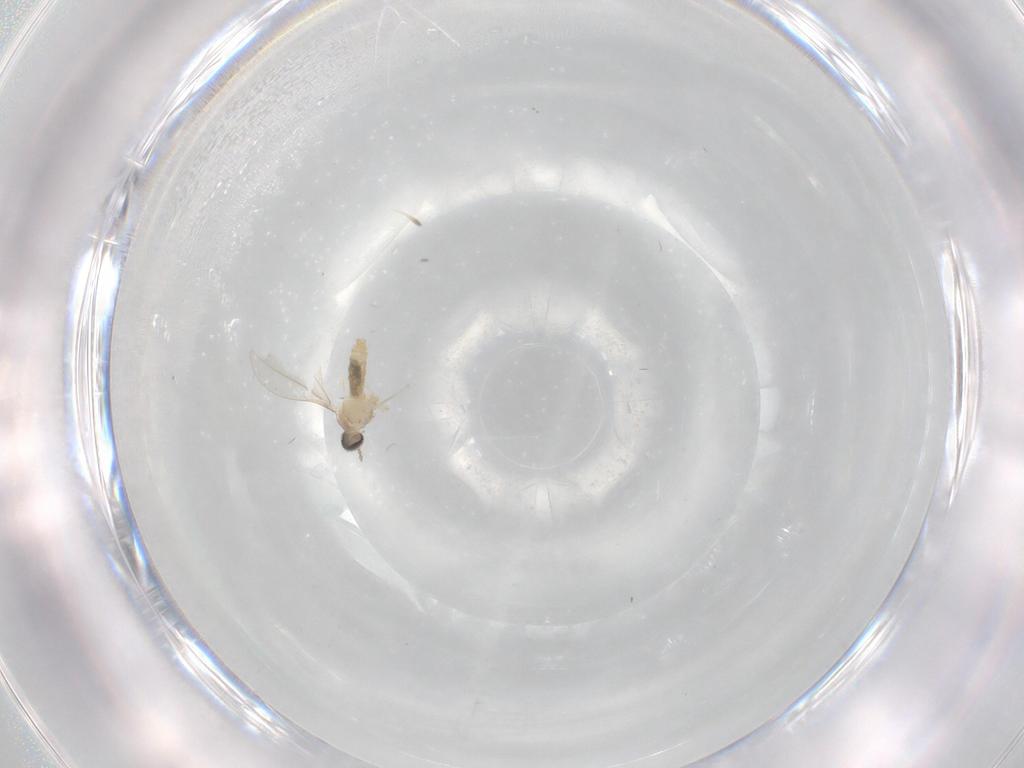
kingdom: Animalia
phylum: Arthropoda
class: Insecta
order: Diptera
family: Cecidomyiidae
